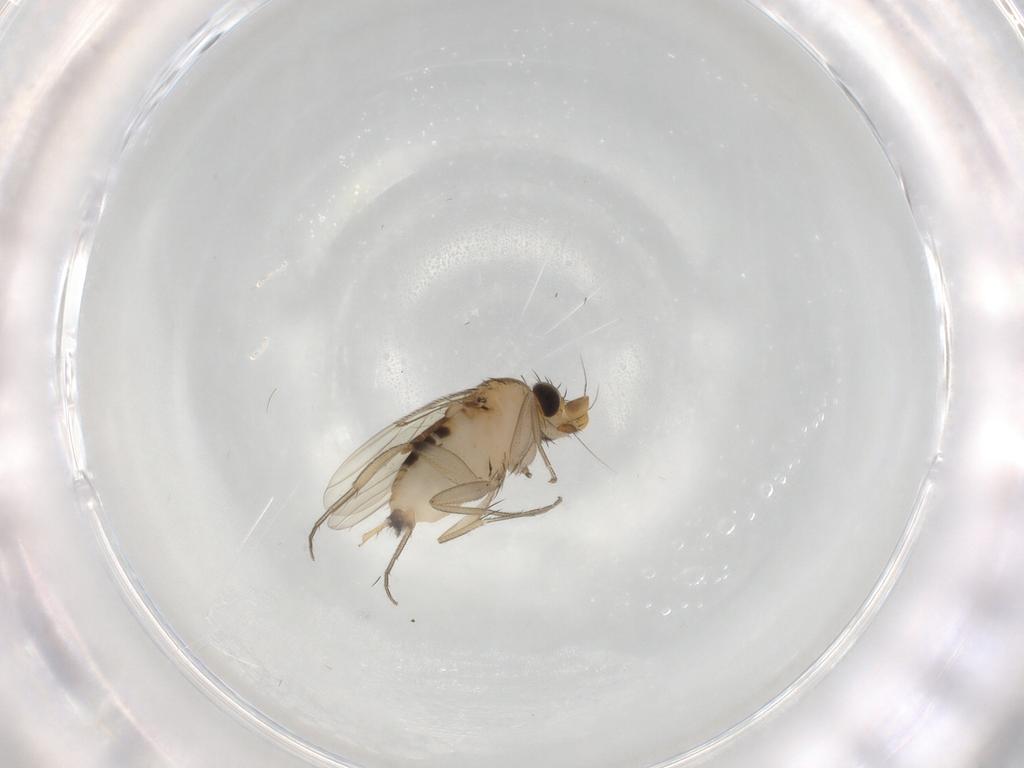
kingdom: Animalia
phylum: Arthropoda
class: Insecta
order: Diptera
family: Phoridae
